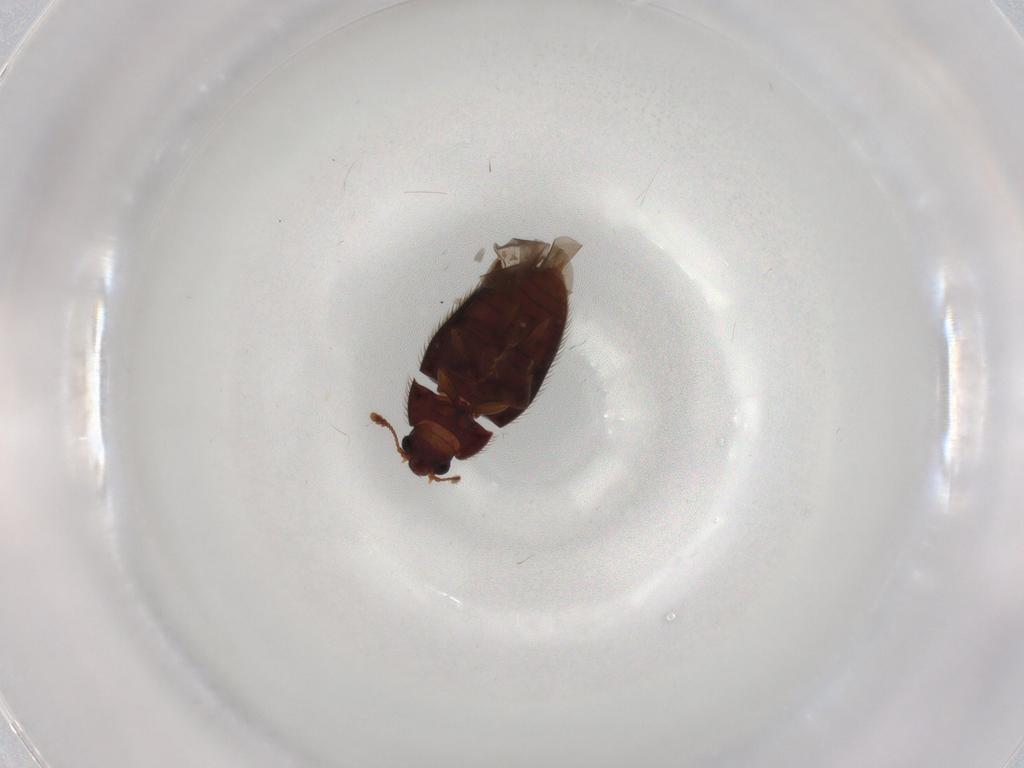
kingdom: Animalia
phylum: Arthropoda
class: Insecta
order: Coleoptera
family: Biphyllidae
